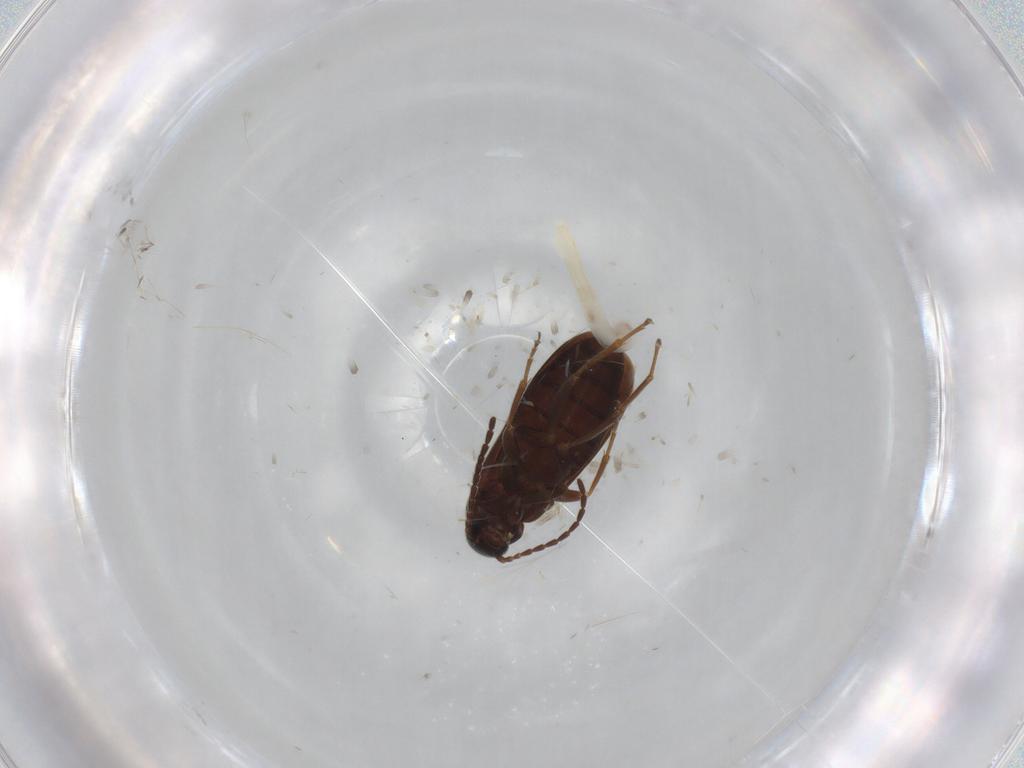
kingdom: Animalia
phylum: Arthropoda
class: Insecta
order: Coleoptera
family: Scraptiidae
